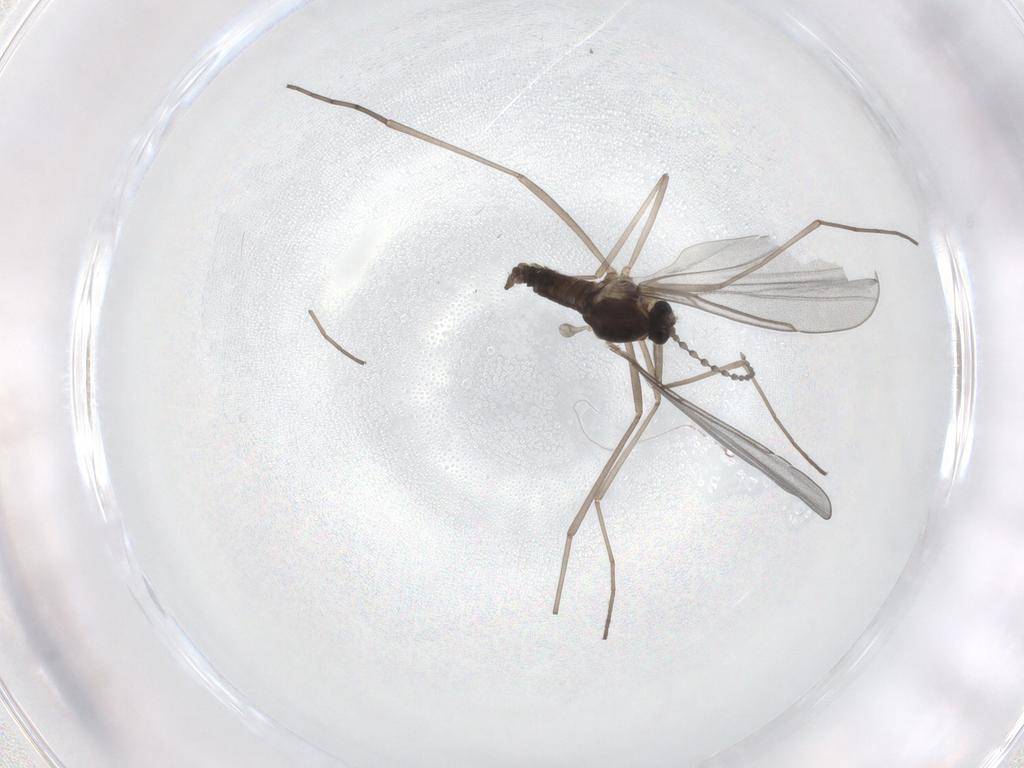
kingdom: Animalia
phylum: Arthropoda
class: Insecta
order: Diptera
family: Cecidomyiidae
